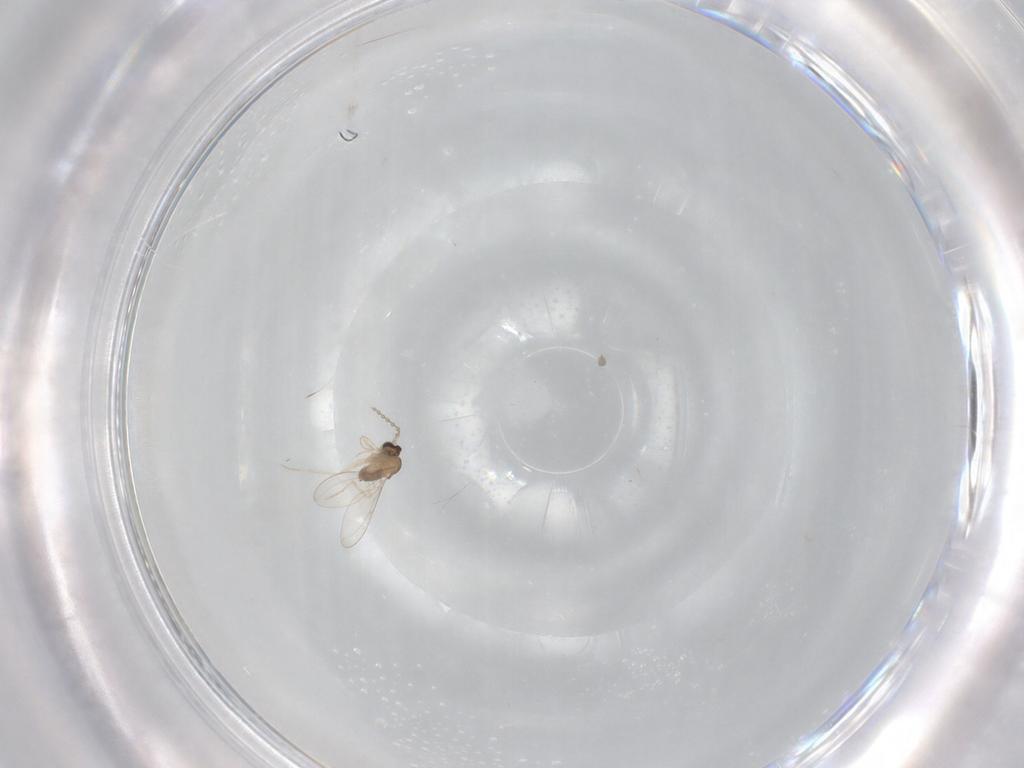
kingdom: Animalia
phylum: Arthropoda
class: Insecta
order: Diptera
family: Cecidomyiidae
